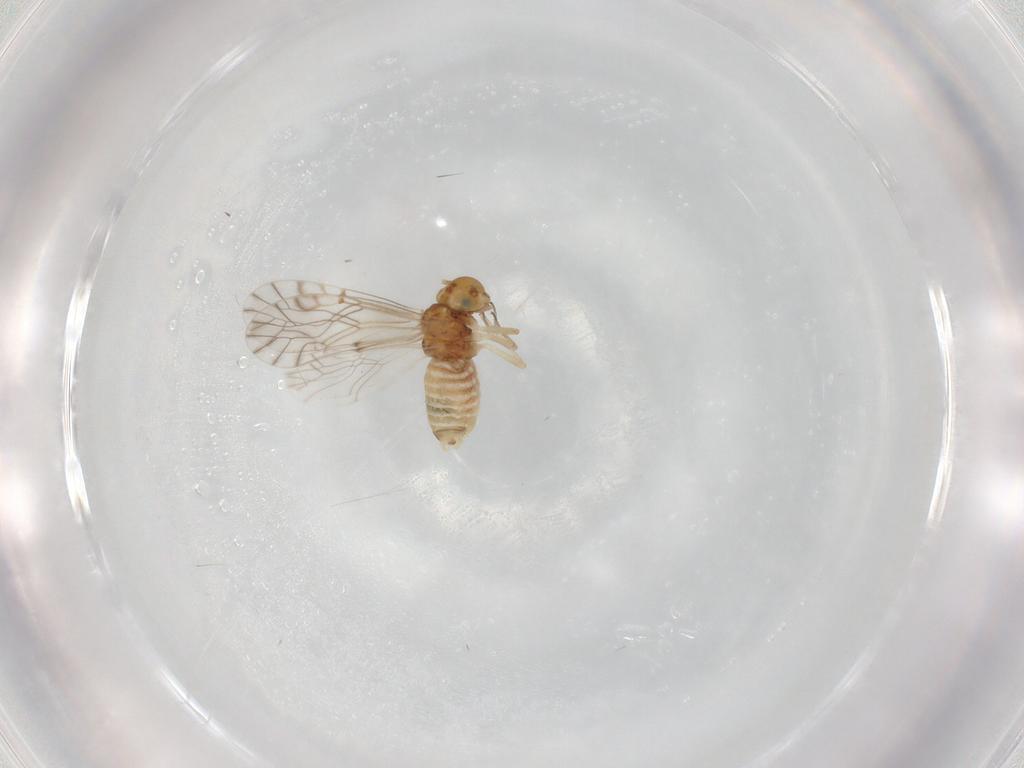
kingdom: Animalia
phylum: Arthropoda
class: Insecta
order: Psocodea
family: Lachesillidae
